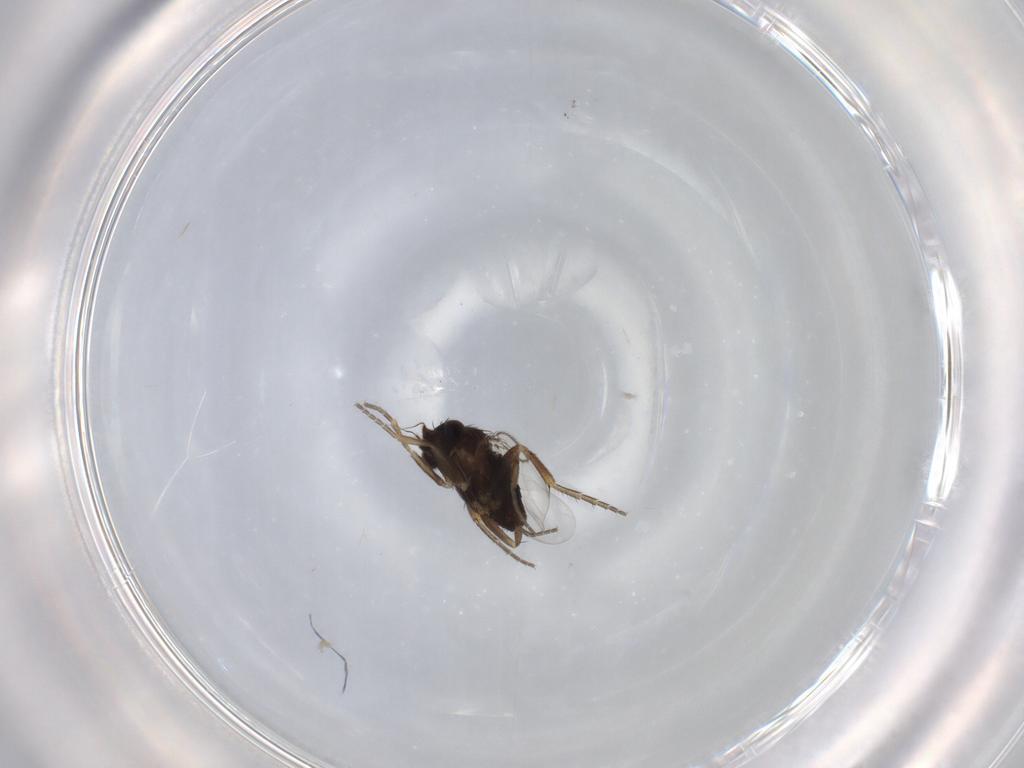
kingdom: Animalia
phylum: Arthropoda
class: Insecta
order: Diptera
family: Phoridae
